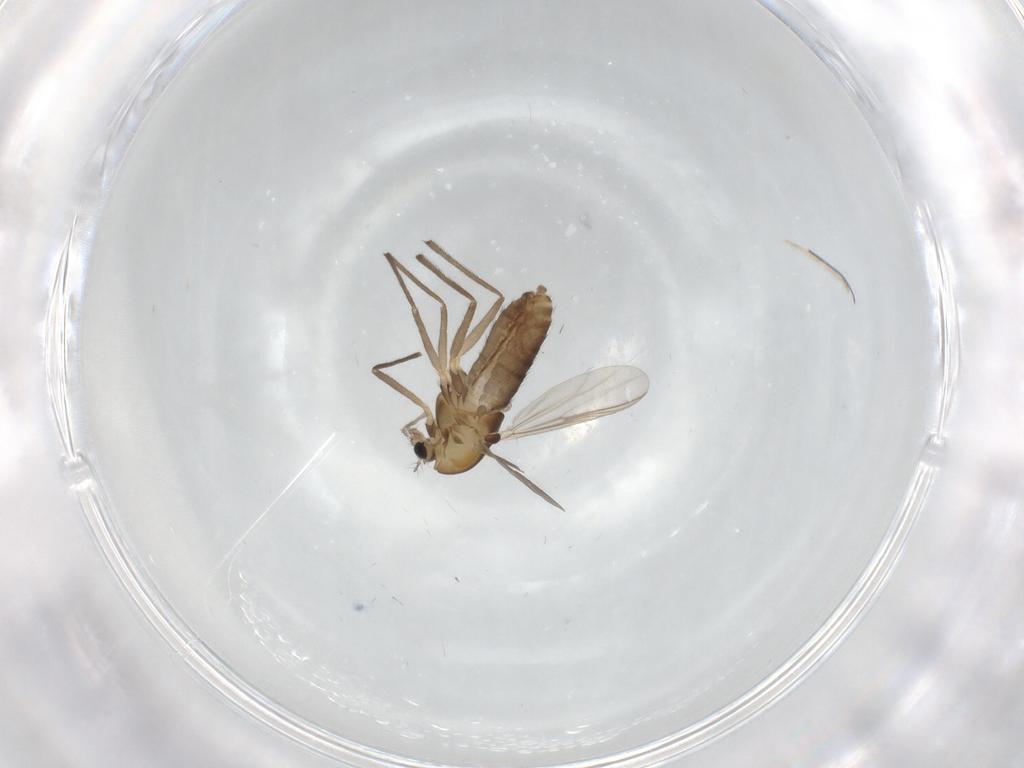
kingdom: Animalia
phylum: Arthropoda
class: Insecta
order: Diptera
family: Chironomidae
